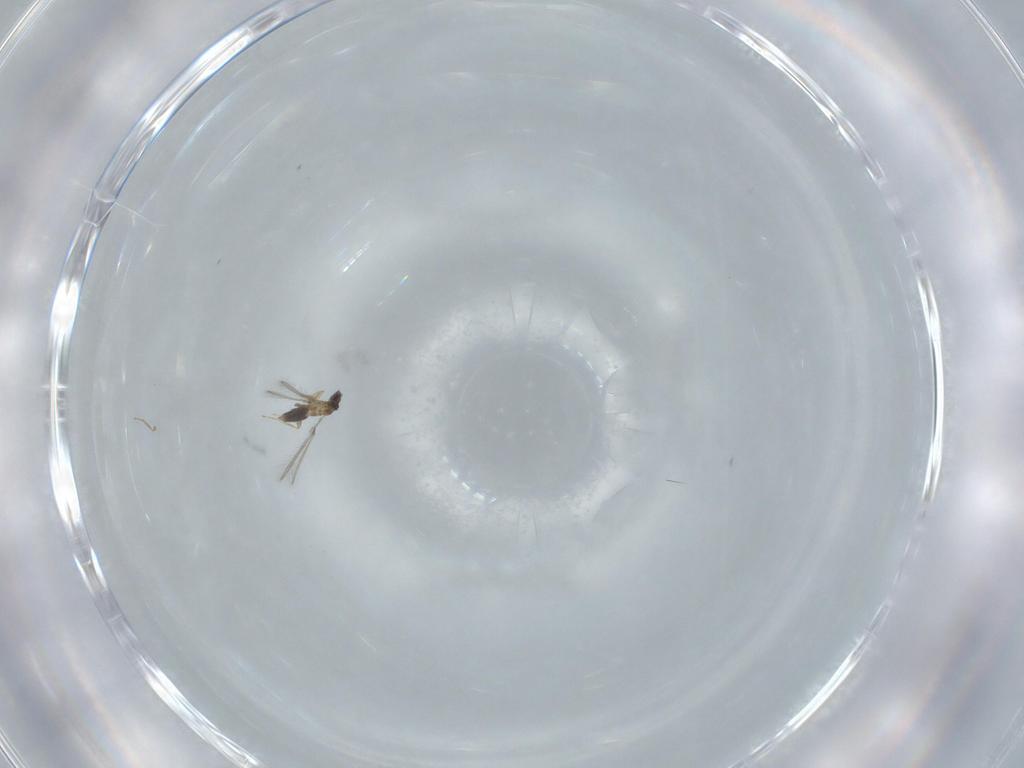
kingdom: Animalia
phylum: Arthropoda
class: Insecta
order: Hymenoptera
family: Mymaridae
